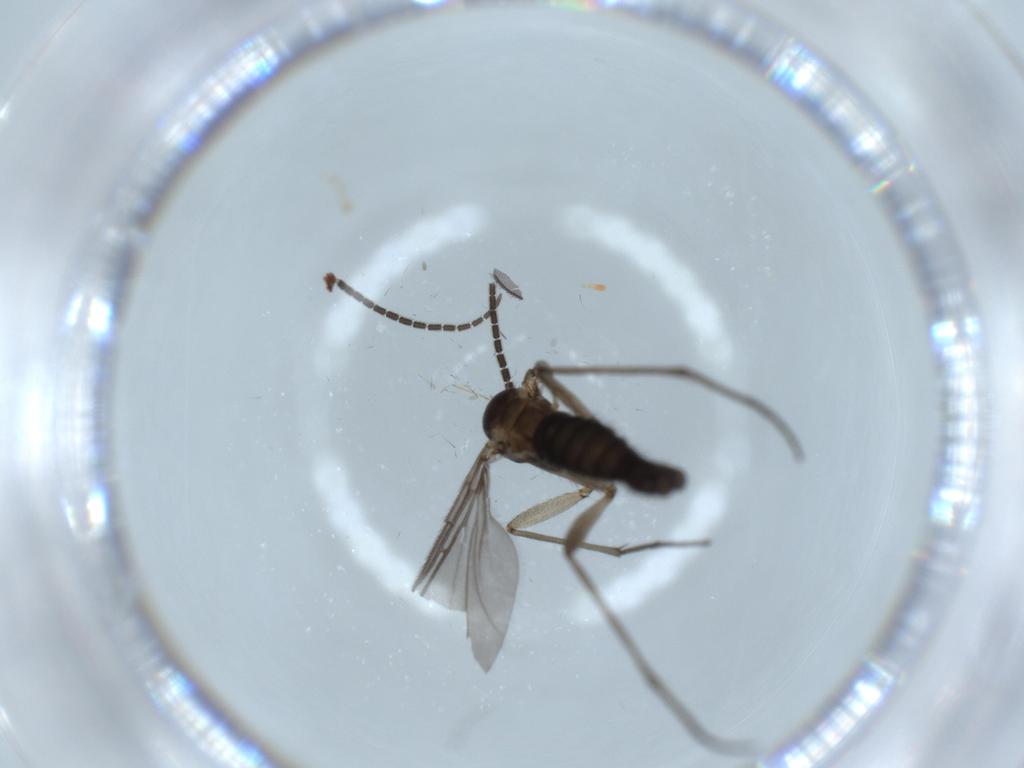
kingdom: Animalia
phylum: Arthropoda
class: Insecta
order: Diptera
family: Sciaridae
